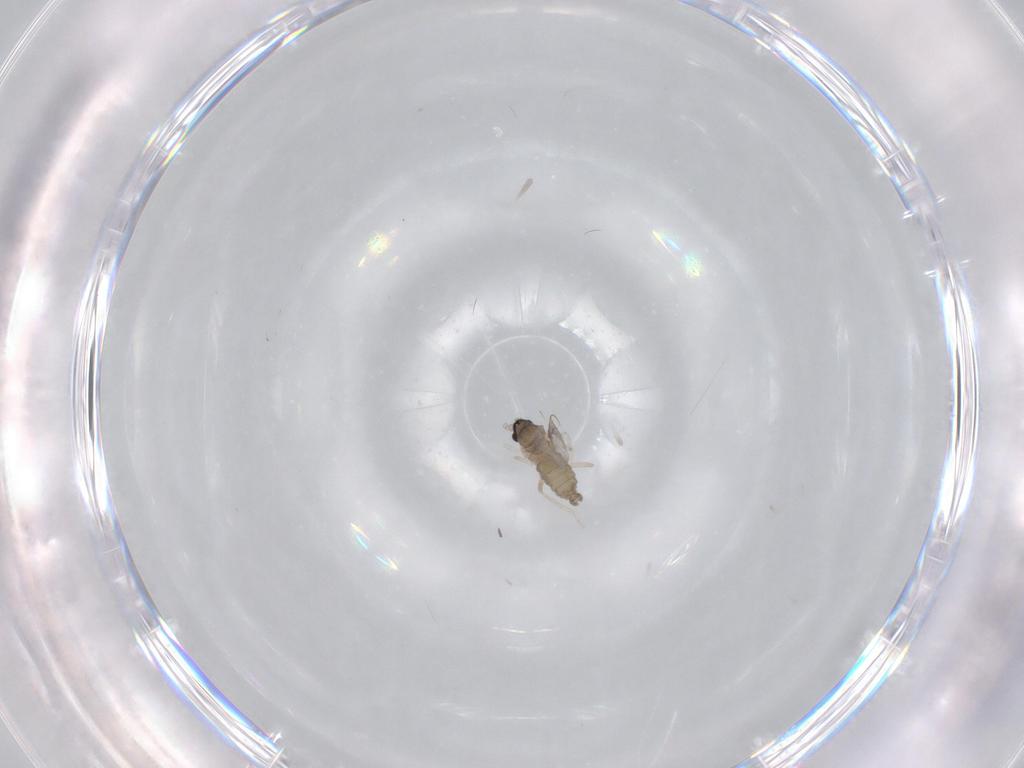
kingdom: Animalia
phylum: Arthropoda
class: Insecta
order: Diptera
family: Cecidomyiidae
